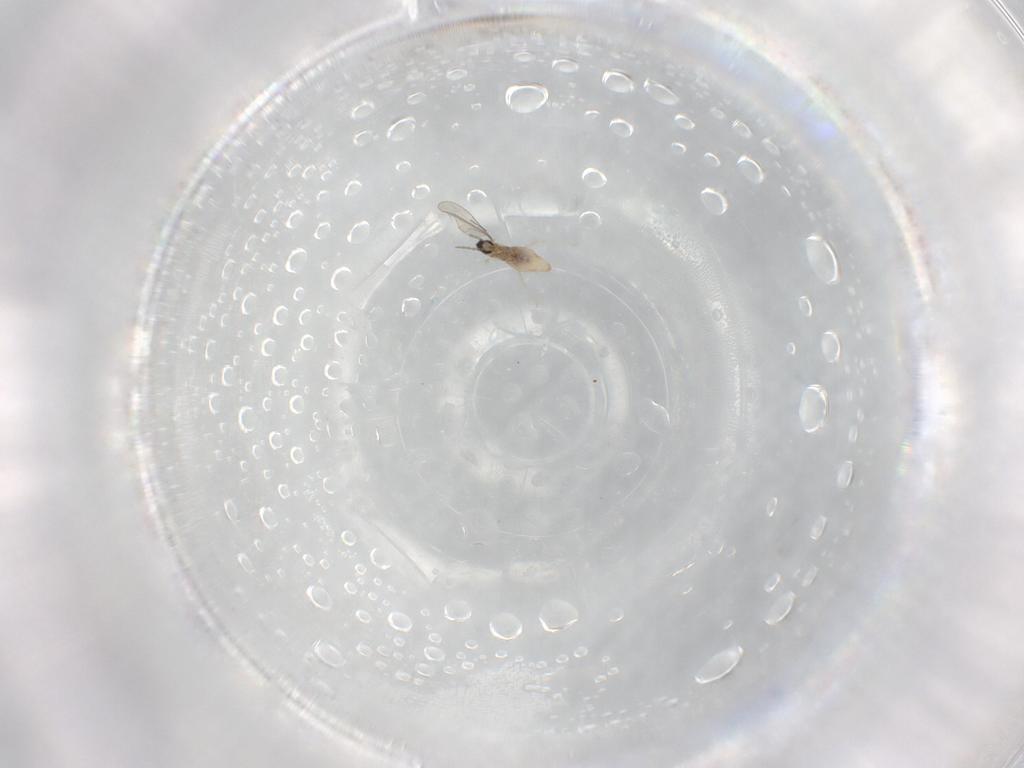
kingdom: Animalia
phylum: Arthropoda
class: Insecta
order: Diptera
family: Cecidomyiidae
